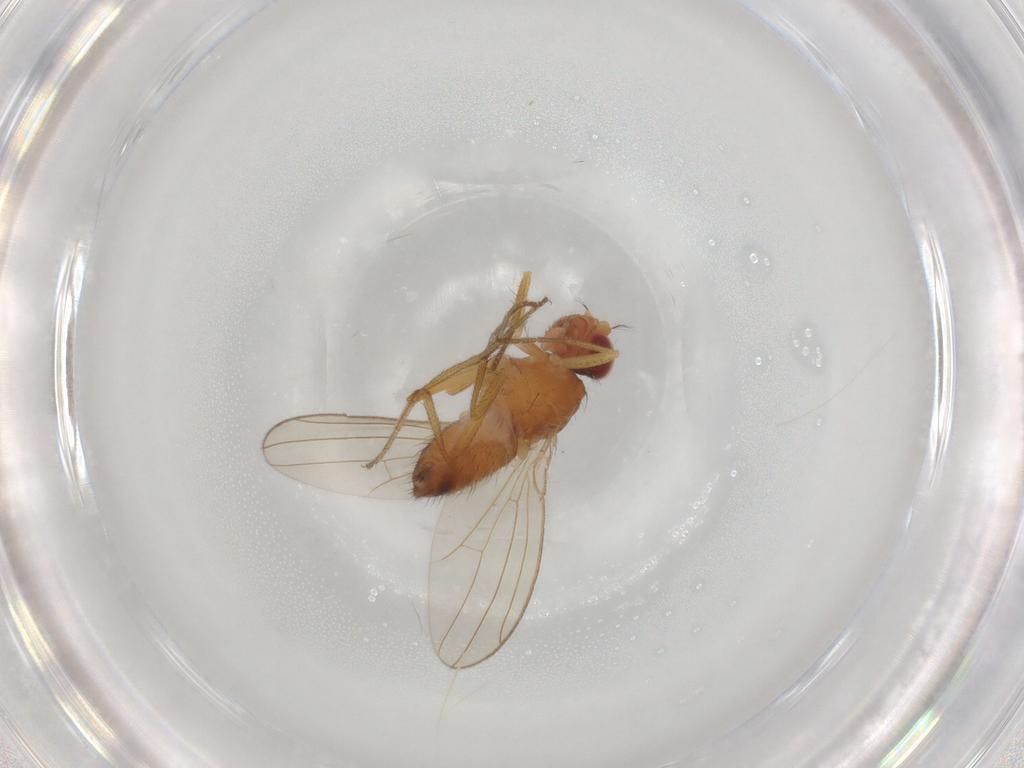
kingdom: Animalia
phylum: Arthropoda
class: Insecta
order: Diptera
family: Drosophilidae
